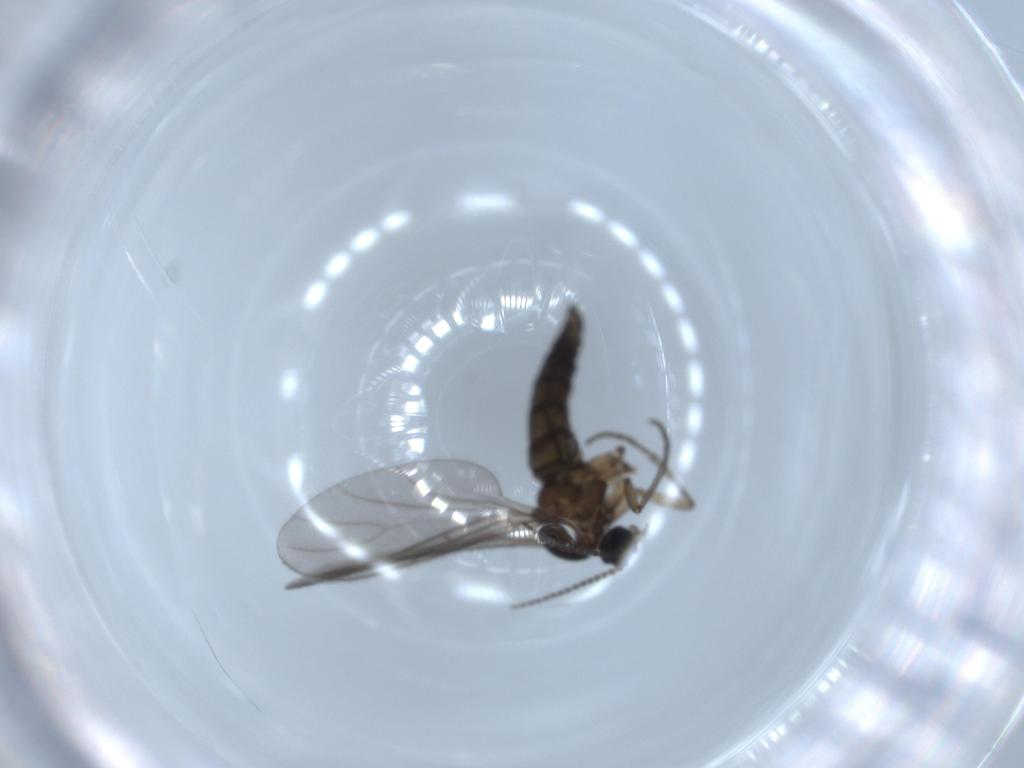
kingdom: Animalia
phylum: Arthropoda
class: Insecta
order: Diptera
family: Sciaridae
